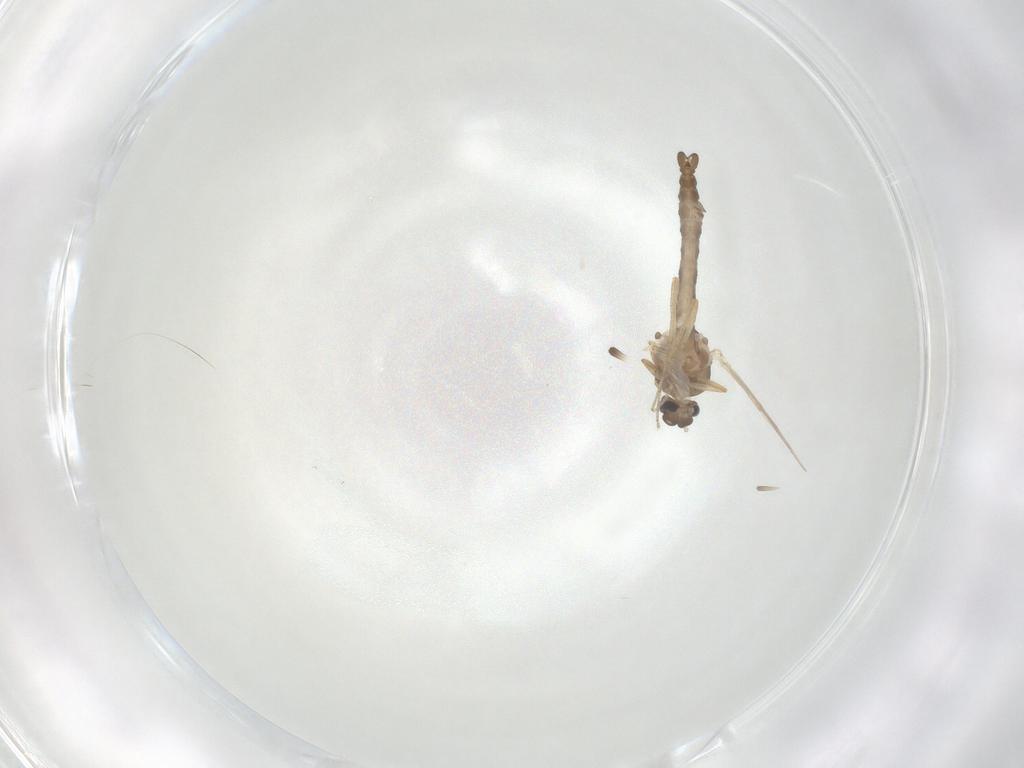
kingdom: Animalia
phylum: Arthropoda
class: Insecta
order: Diptera
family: Ceratopogonidae
